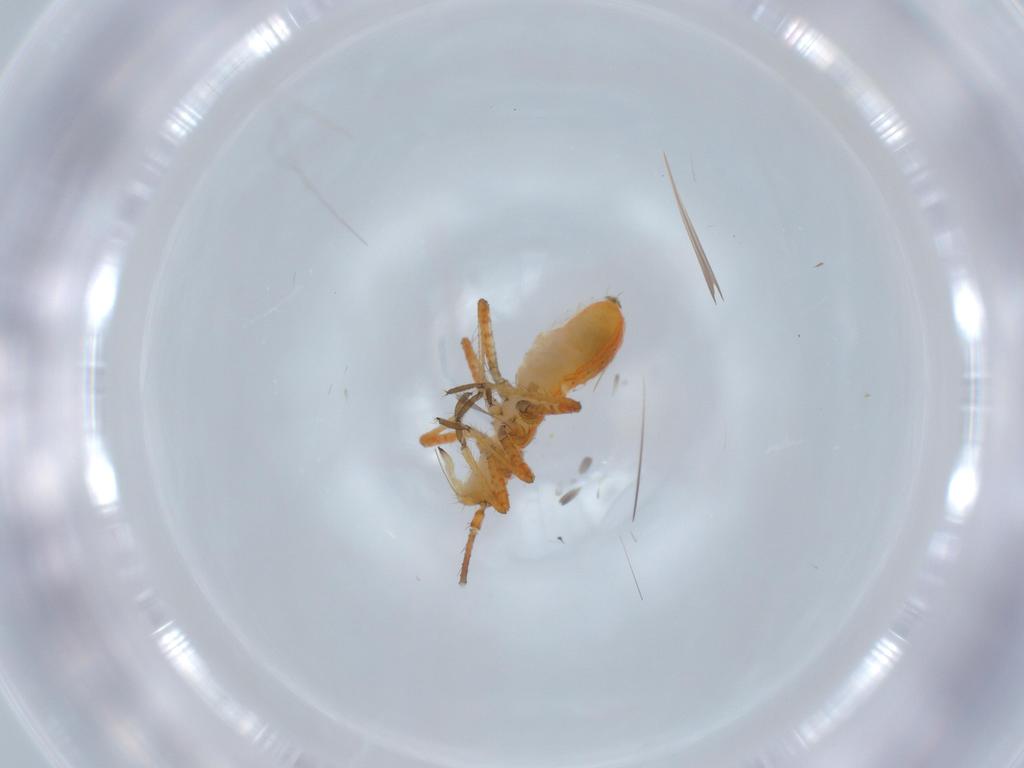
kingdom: Animalia
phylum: Arthropoda
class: Insecta
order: Hemiptera
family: Miridae
